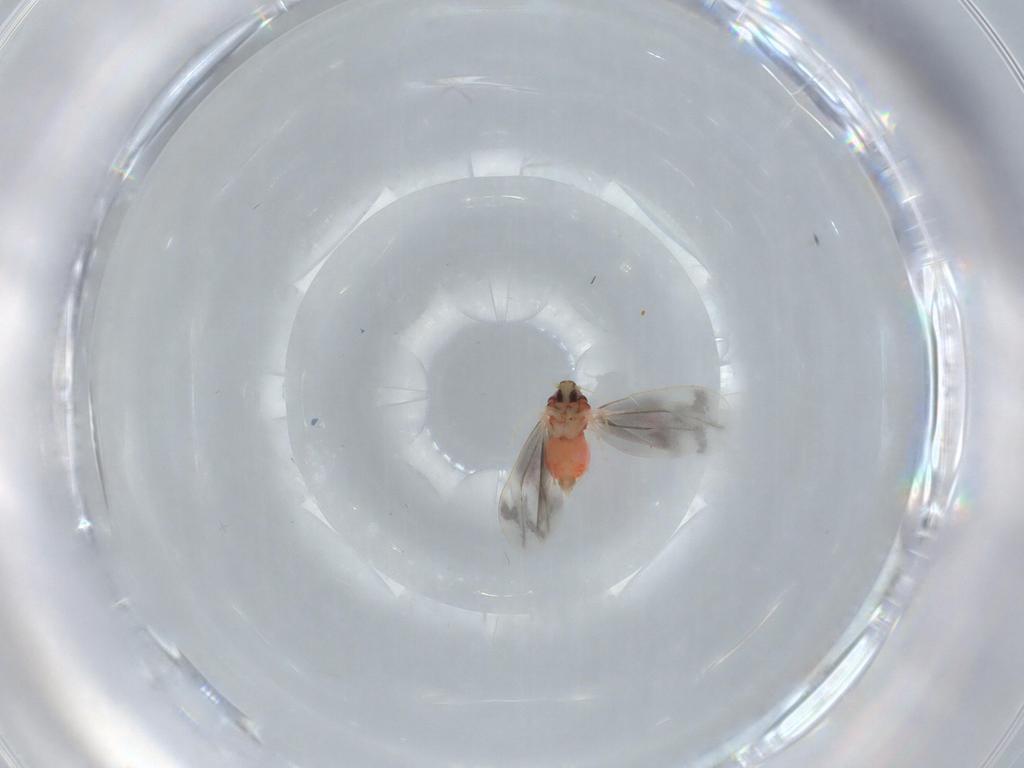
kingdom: Animalia
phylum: Arthropoda
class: Insecta
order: Hemiptera
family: Aleyrodidae
